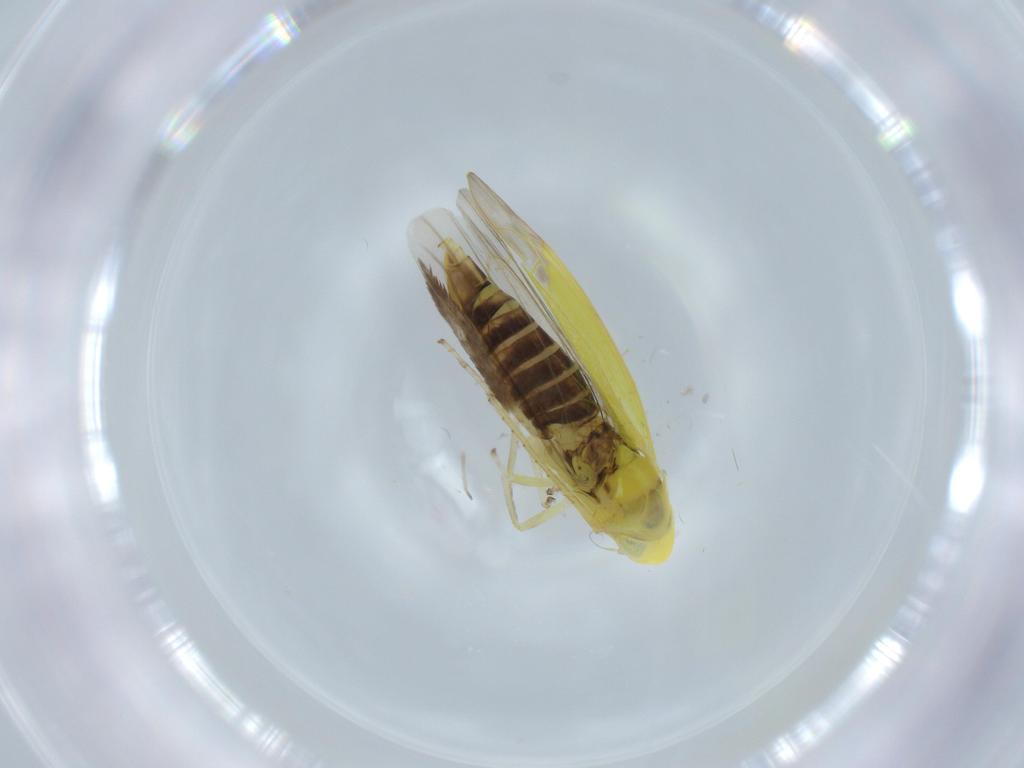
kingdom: Animalia
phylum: Arthropoda
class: Insecta
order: Hemiptera
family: Cicadellidae
